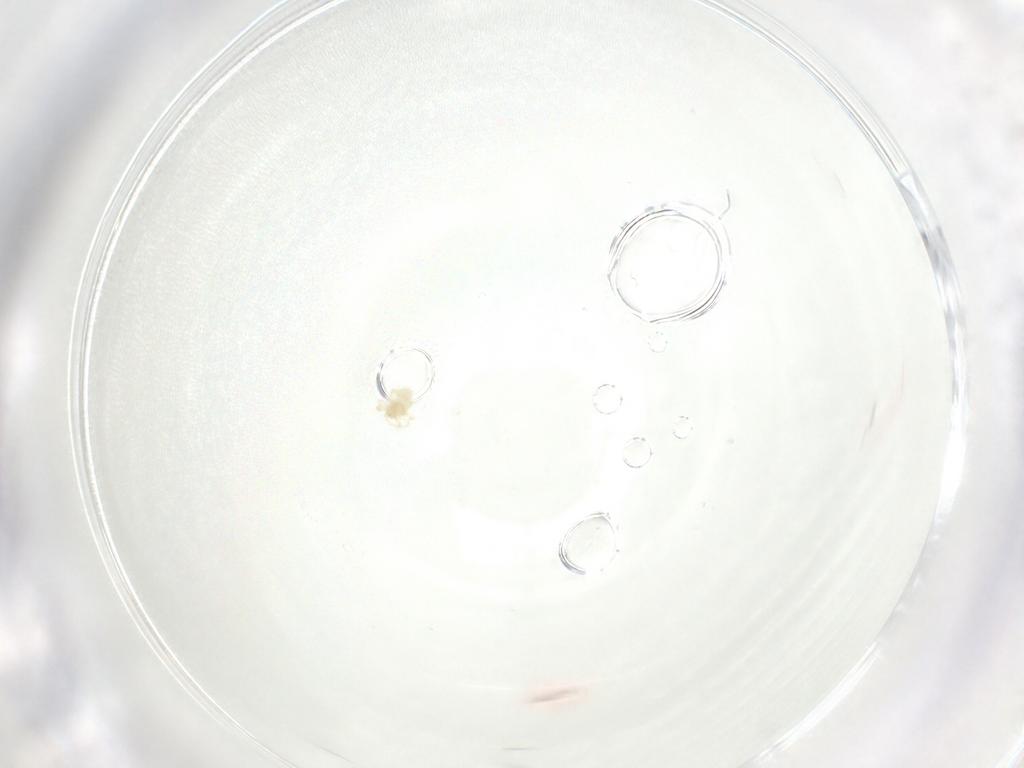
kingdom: Animalia
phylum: Arthropoda
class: Arachnida
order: Trombidiformes
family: Anystidae
